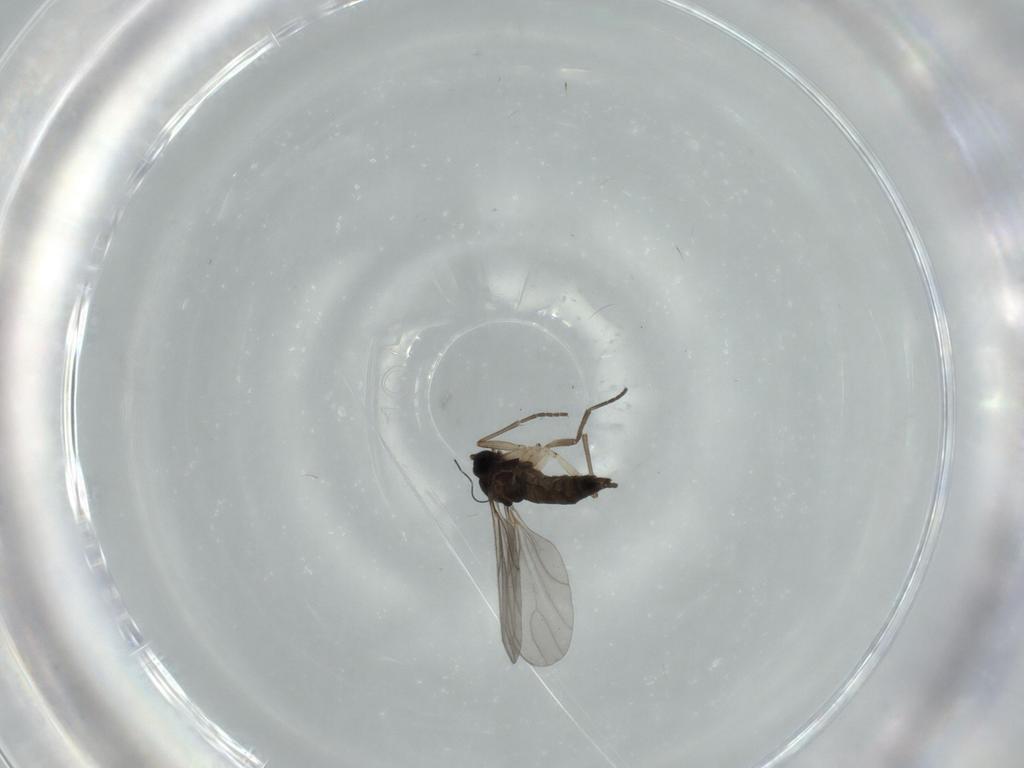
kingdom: Animalia
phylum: Arthropoda
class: Insecta
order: Diptera
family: Sciaridae
